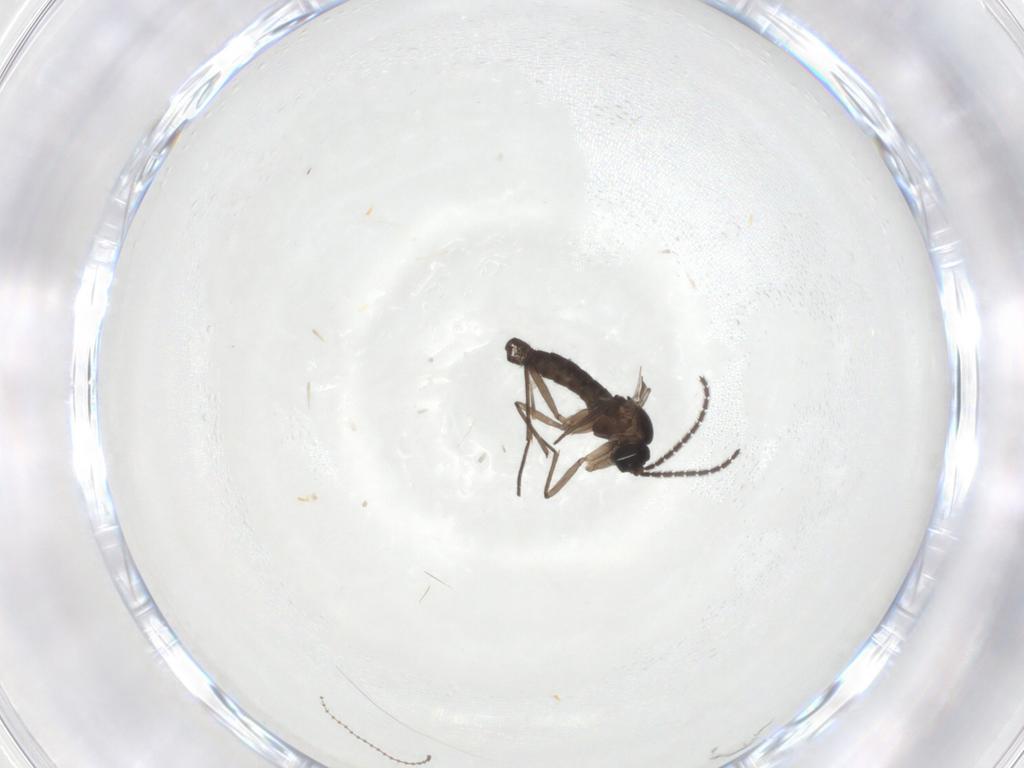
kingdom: Animalia
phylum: Arthropoda
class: Insecta
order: Diptera
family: Sciaridae
